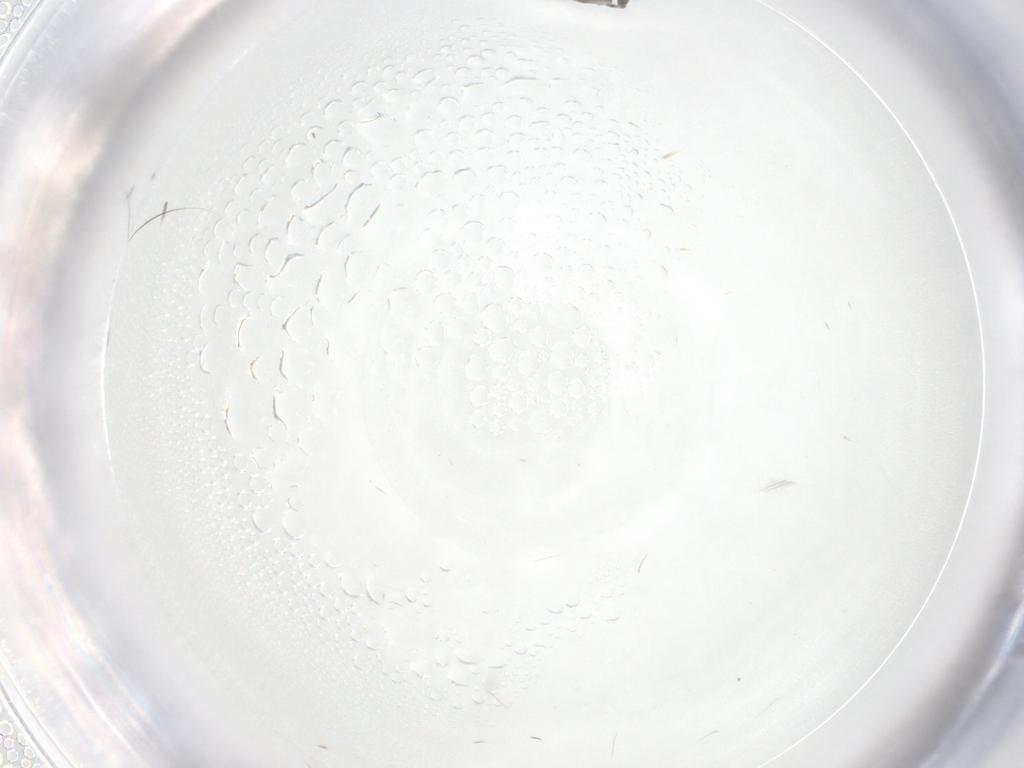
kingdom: Animalia
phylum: Arthropoda
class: Insecta
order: Diptera
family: Sciaridae
